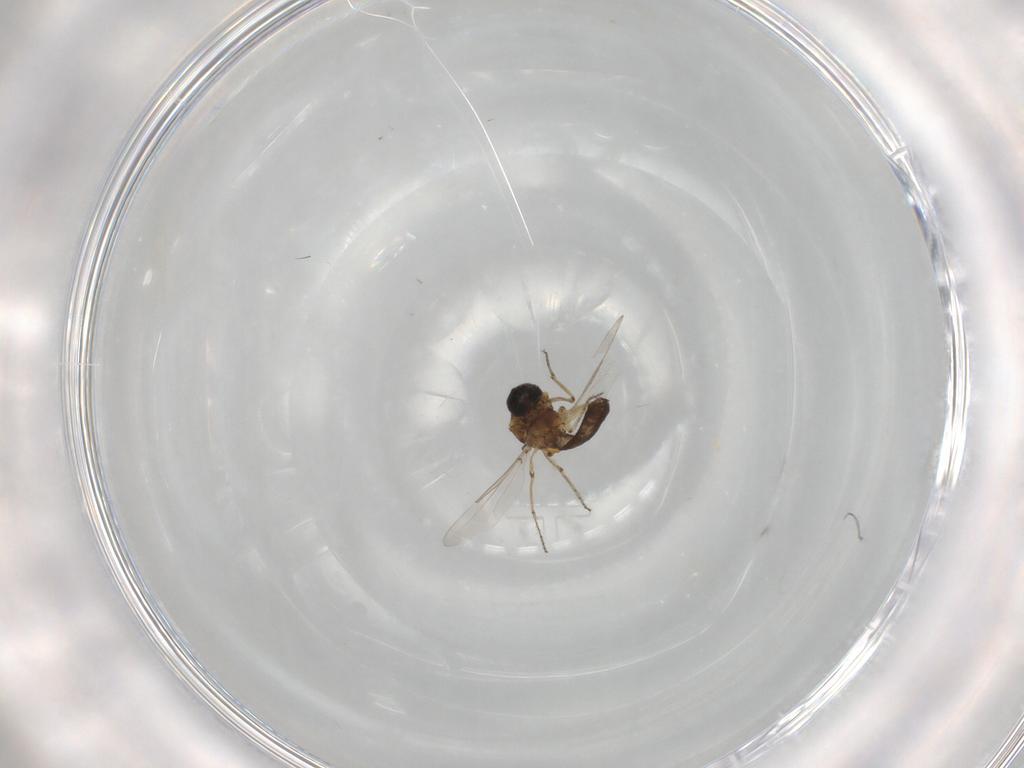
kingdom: Animalia
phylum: Arthropoda
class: Insecta
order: Diptera
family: Ceratopogonidae
